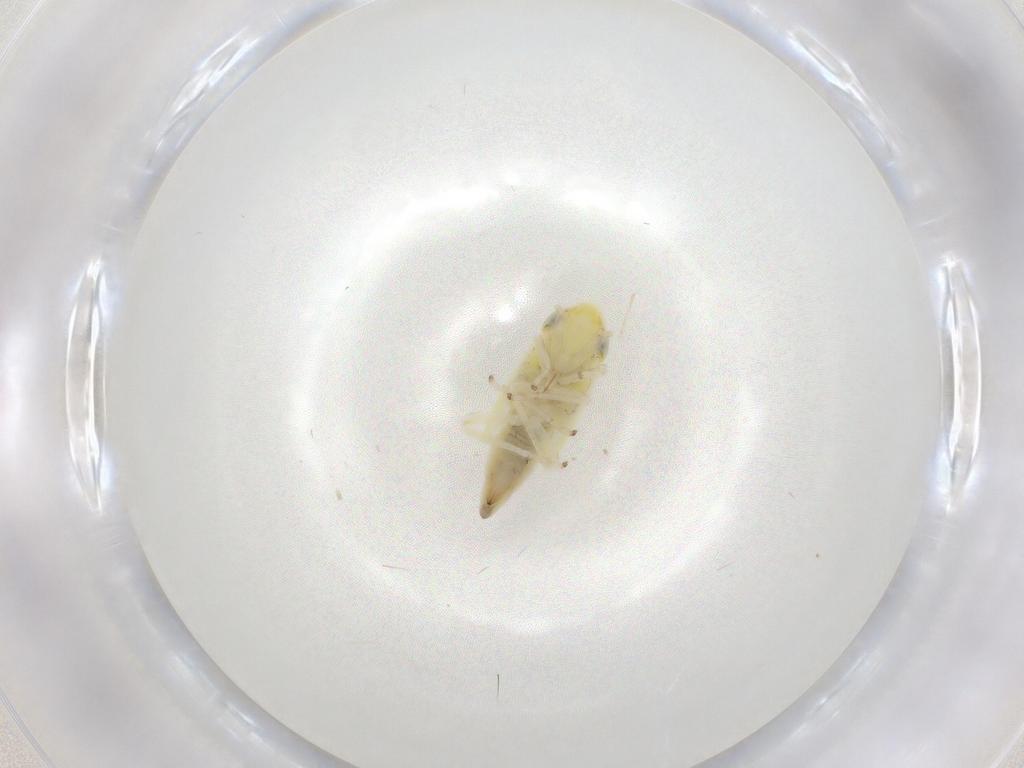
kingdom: Animalia
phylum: Arthropoda
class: Insecta
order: Hemiptera
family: Cicadellidae
